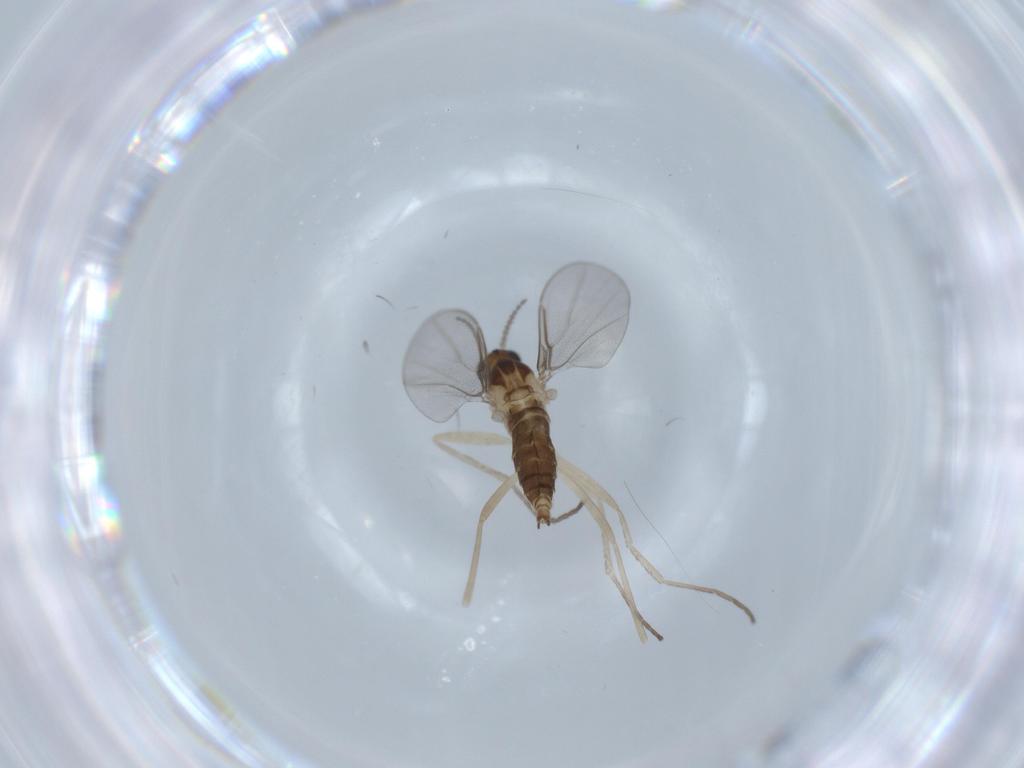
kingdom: Animalia
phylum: Arthropoda
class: Insecta
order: Diptera
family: Cecidomyiidae
